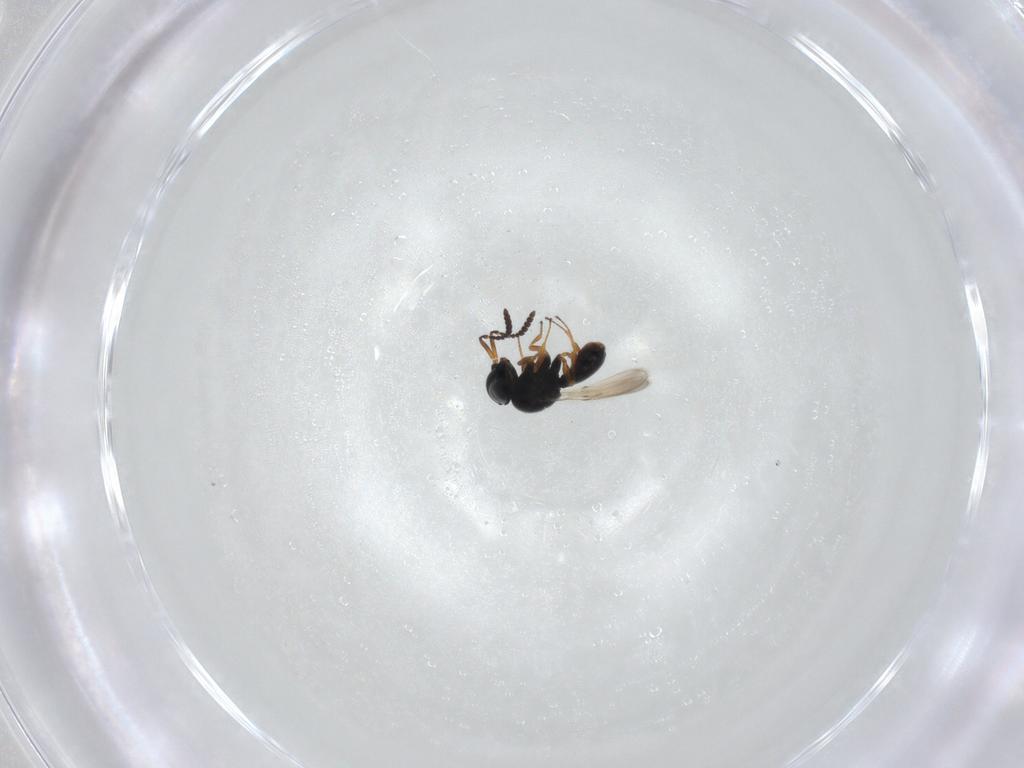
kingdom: Animalia
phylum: Arthropoda
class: Insecta
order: Hymenoptera
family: Scelionidae
